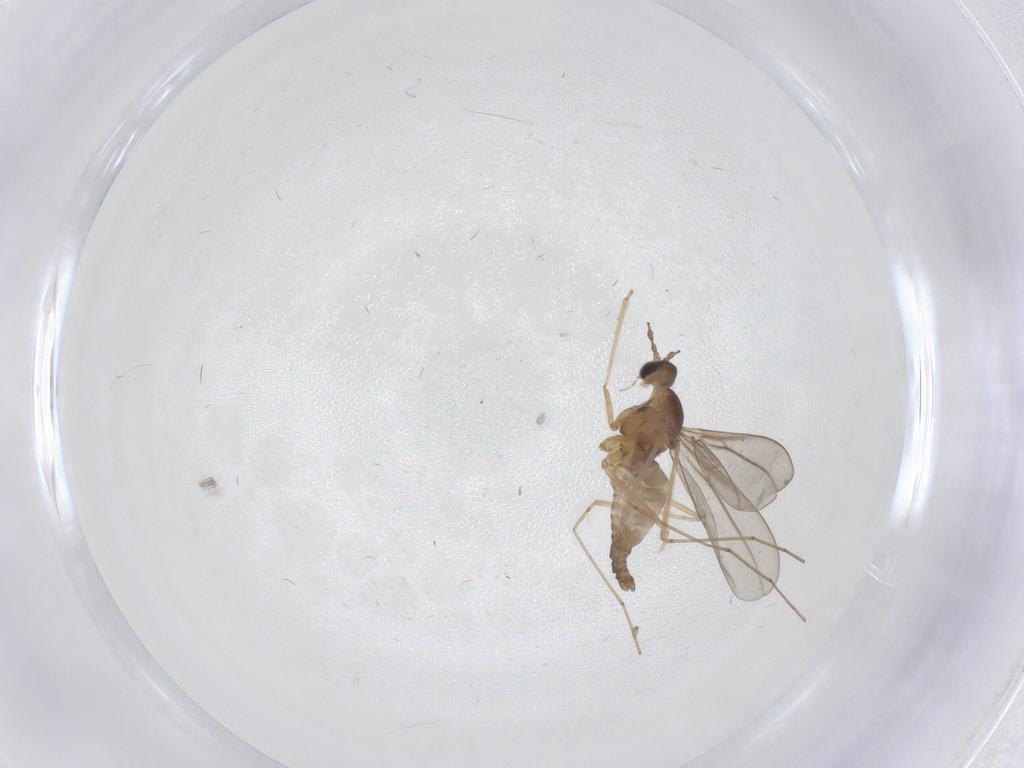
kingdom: Animalia
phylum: Arthropoda
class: Insecta
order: Diptera
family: Cecidomyiidae
